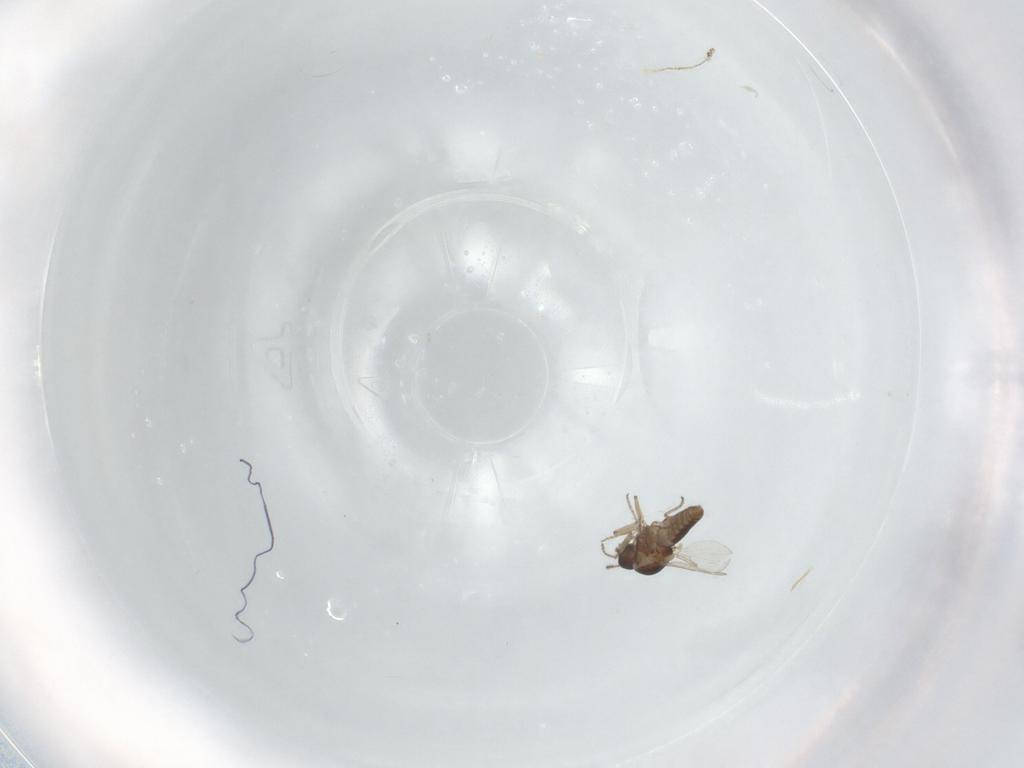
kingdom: Animalia
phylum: Arthropoda
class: Insecta
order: Diptera
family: Ceratopogonidae
